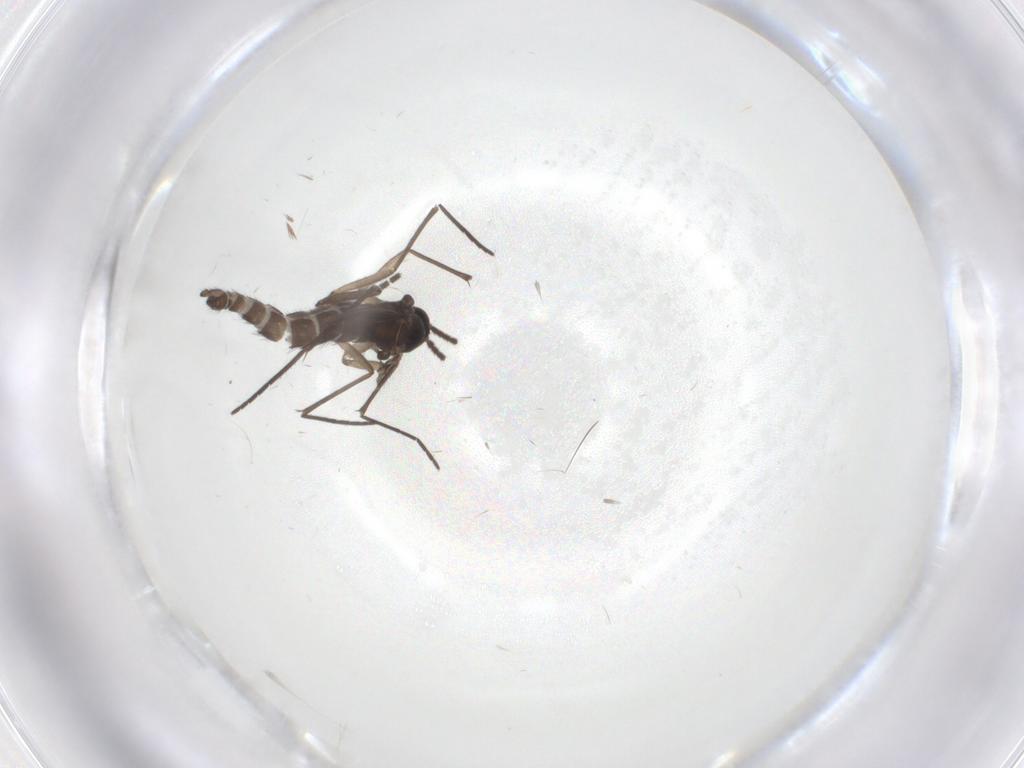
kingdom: Animalia
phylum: Arthropoda
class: Insecta
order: Diptera
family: Sciaridae
